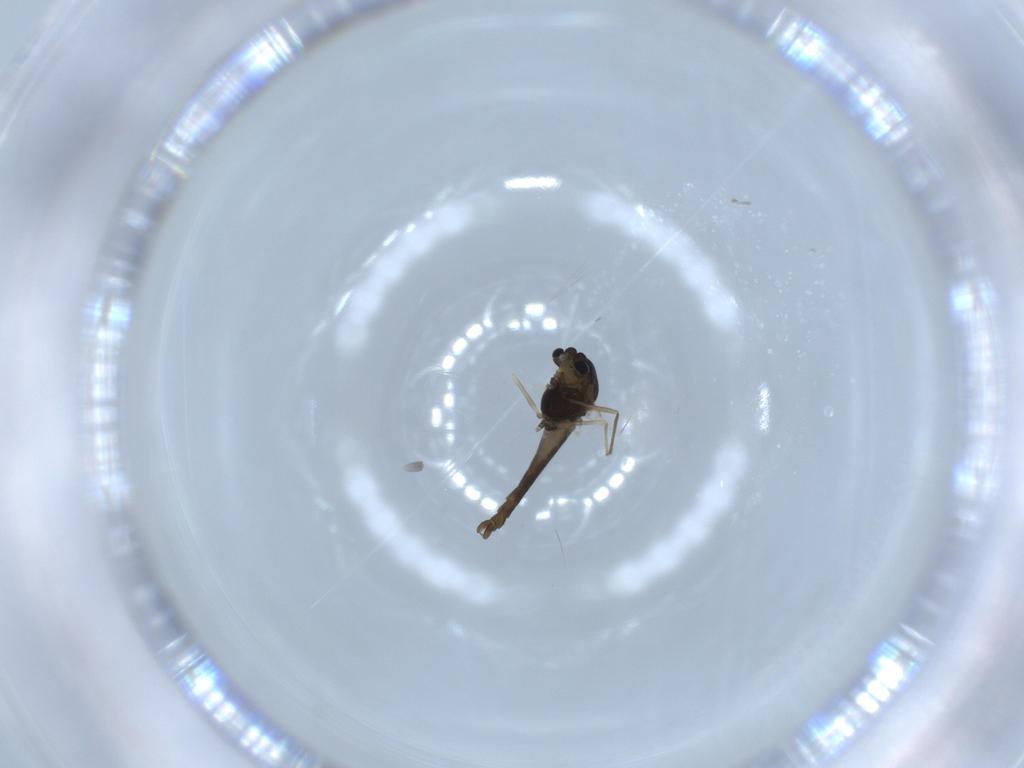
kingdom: Animalia
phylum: Arthropoda
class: Insecta
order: Diptera
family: Chironomidae
